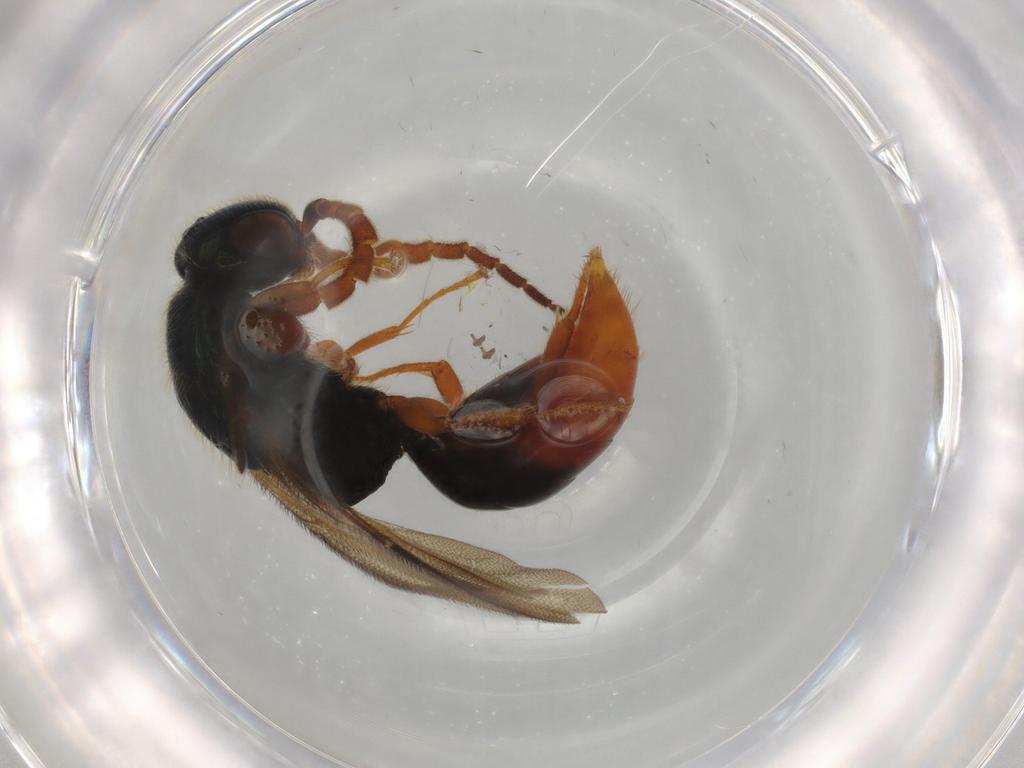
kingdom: Animalia
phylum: Arthropoda
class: Insecta
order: Hymenoptera
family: Bethylidae
